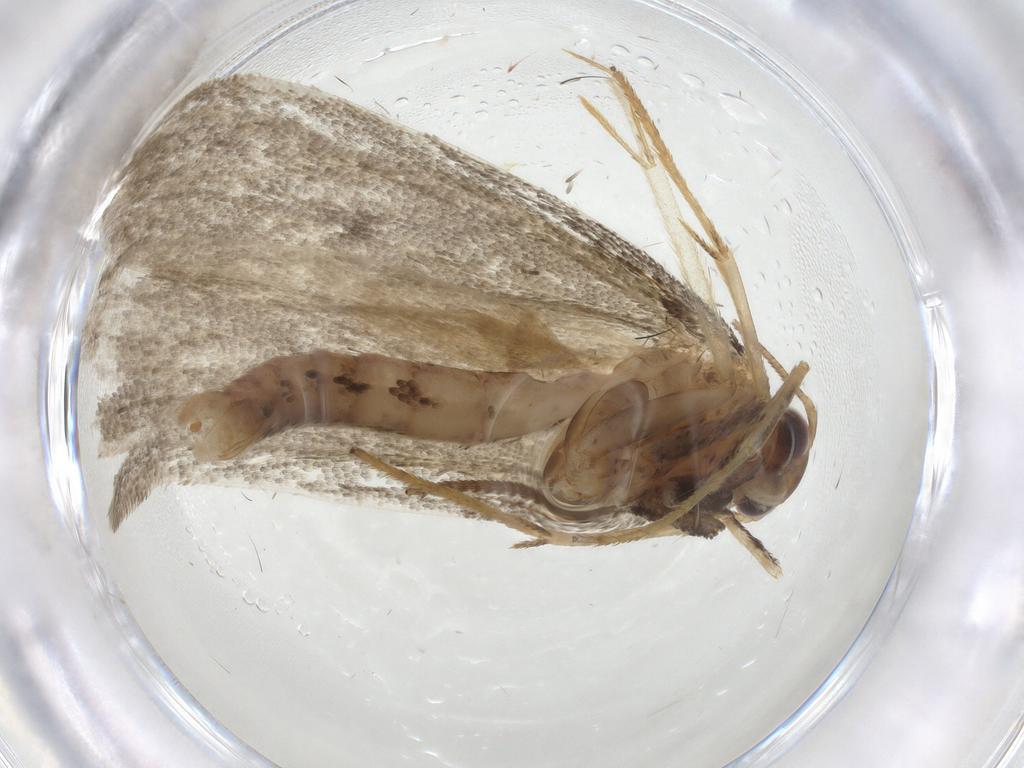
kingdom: Animalia
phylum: Arthropoda
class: Insecta
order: Lepidoptera
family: Depressariidae
